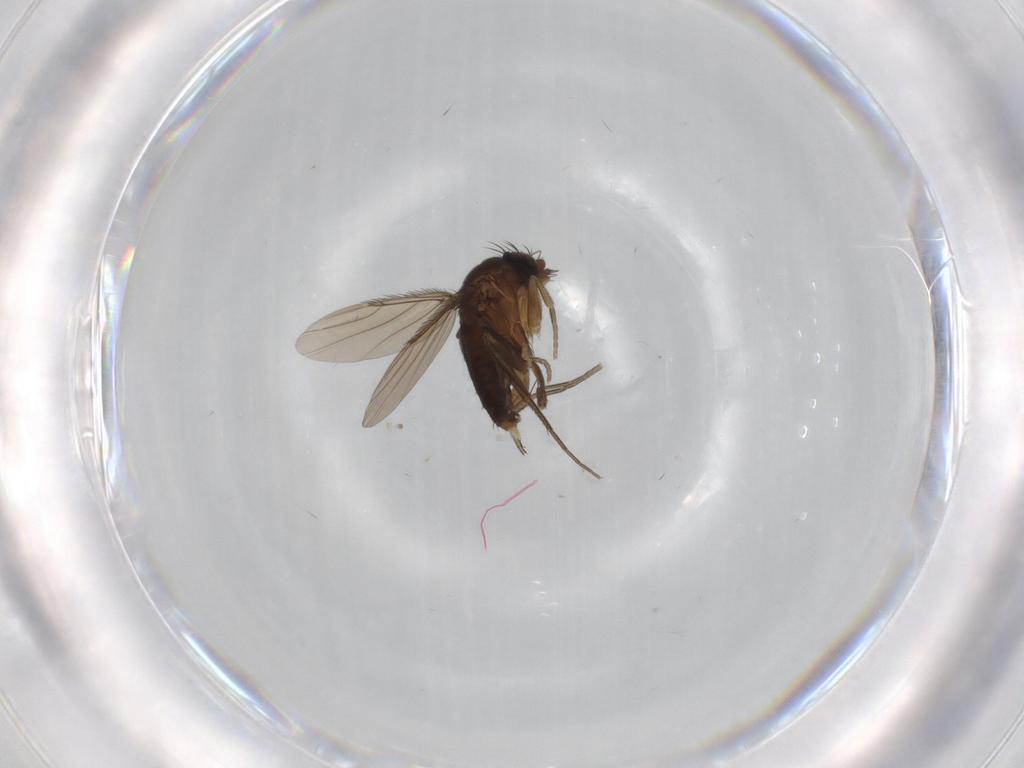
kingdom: Animalia
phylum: Arthropoda
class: Insecta
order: Diptera
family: Phoridae
